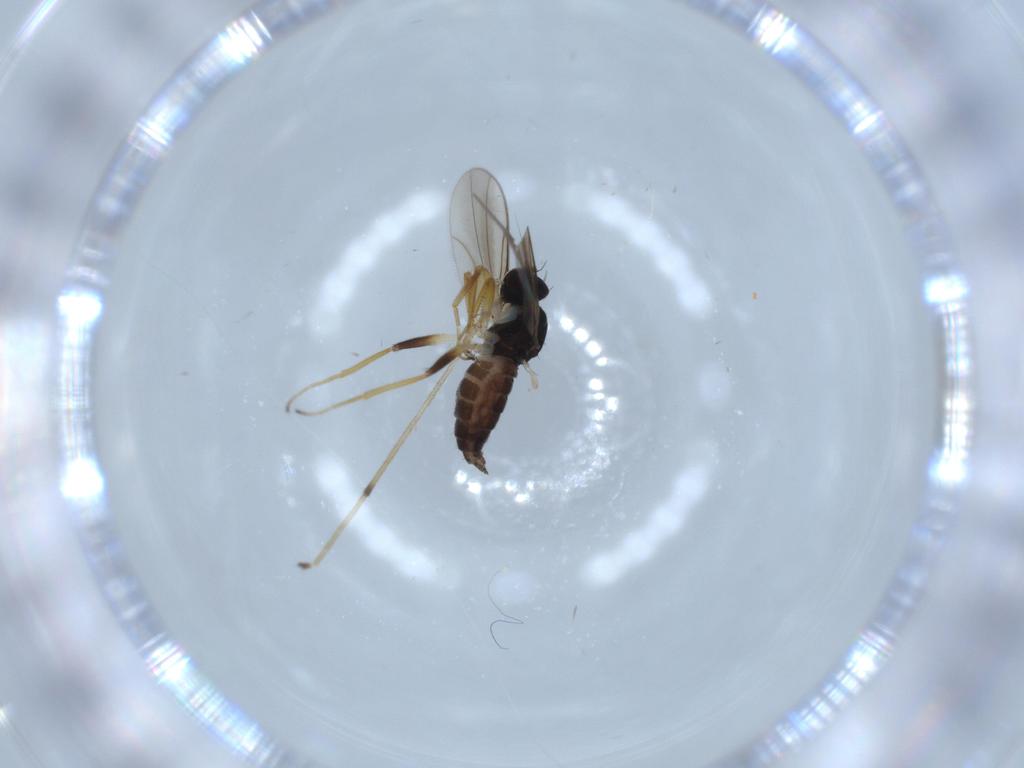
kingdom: Animalia
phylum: Arthropoda
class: Insecta
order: Diptera
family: Hybotidae
